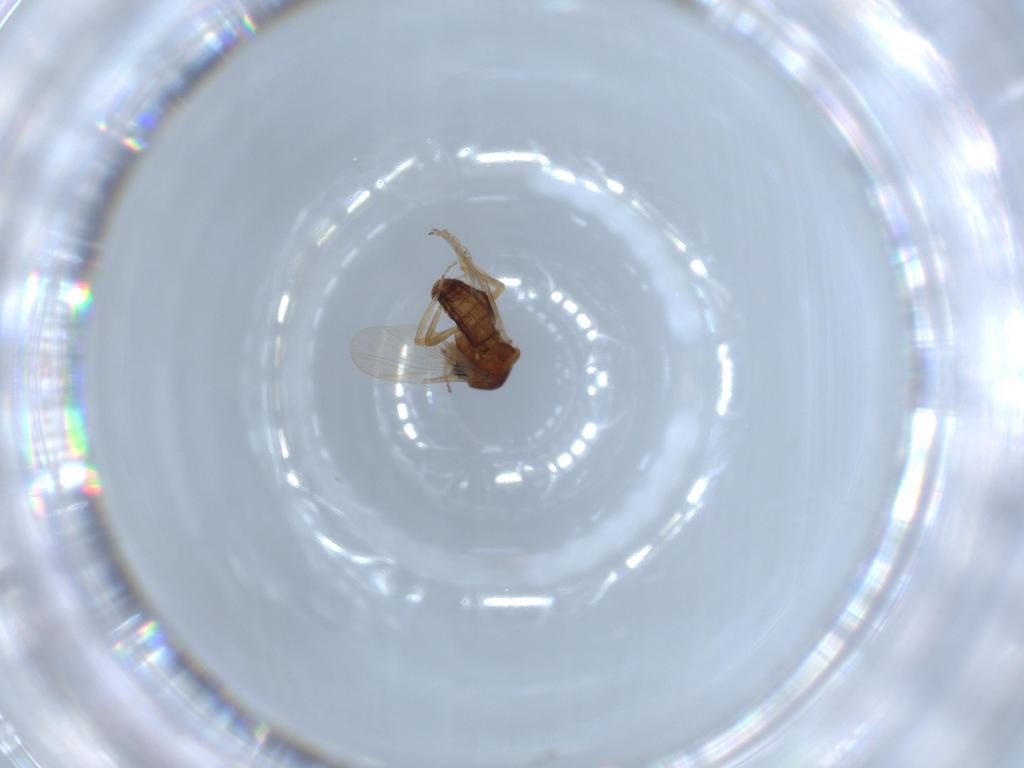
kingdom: Animalia
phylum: Arthropoda
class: Insecta
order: Diptera
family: Ceratopogonidae
